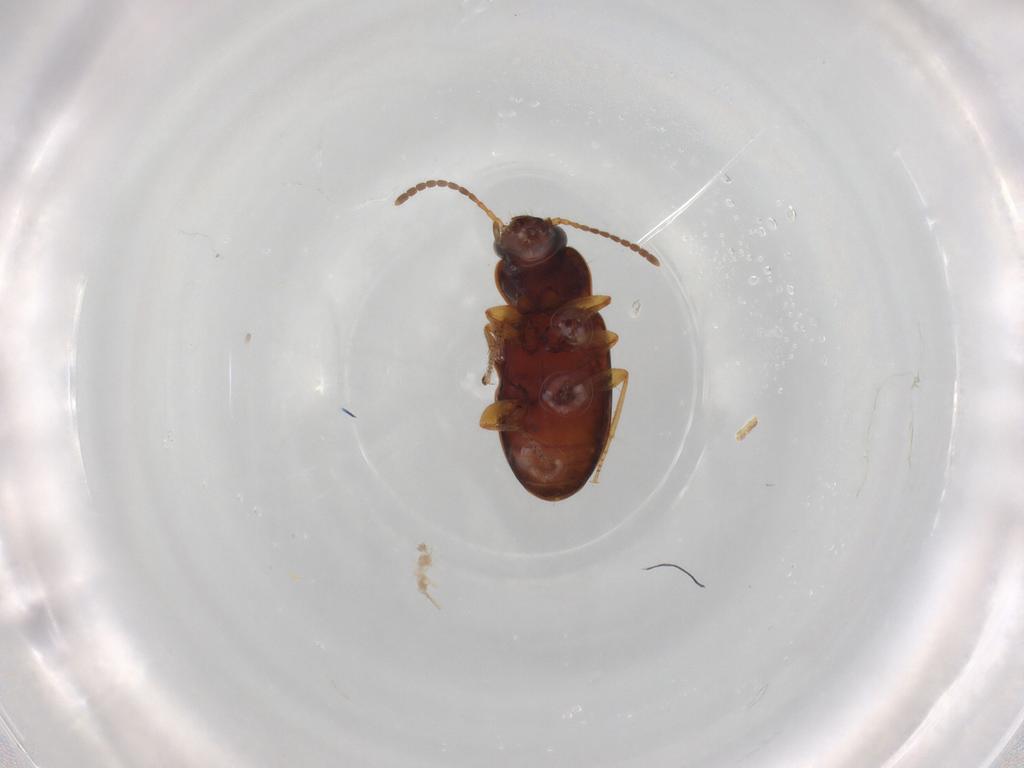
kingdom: Animalia
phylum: Arthropoda
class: Insecta
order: Coleoptera
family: Carabidae
